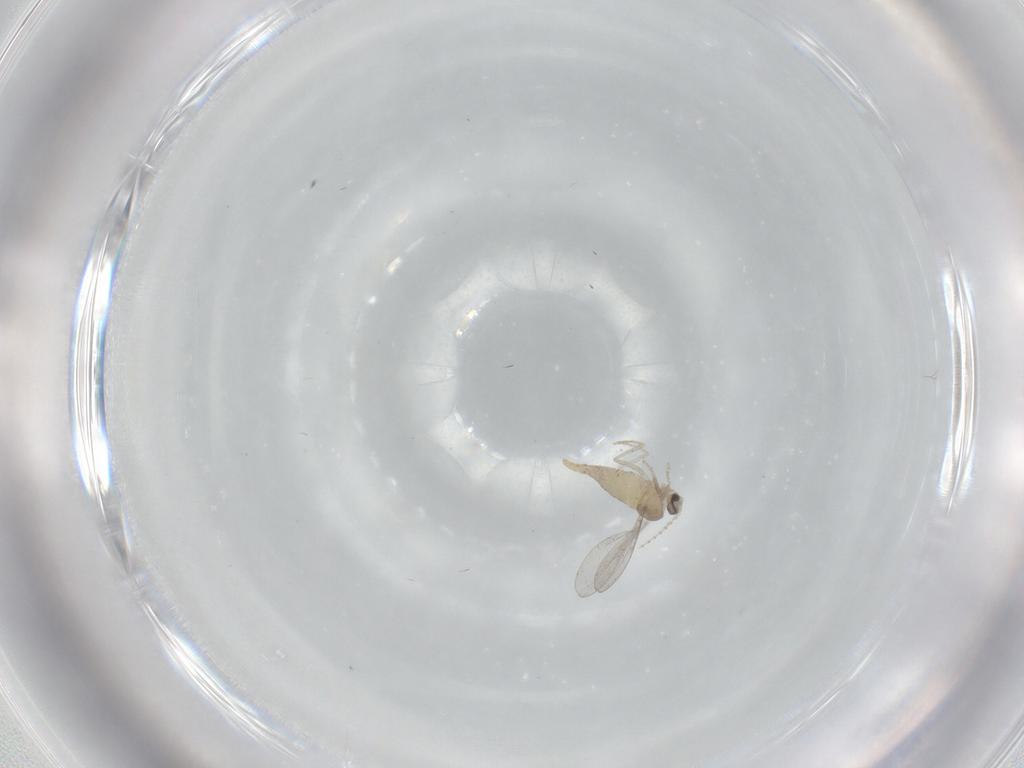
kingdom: Animalia
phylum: Arthropoda
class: Insecta
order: Diptera
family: Cecidomyiidae
